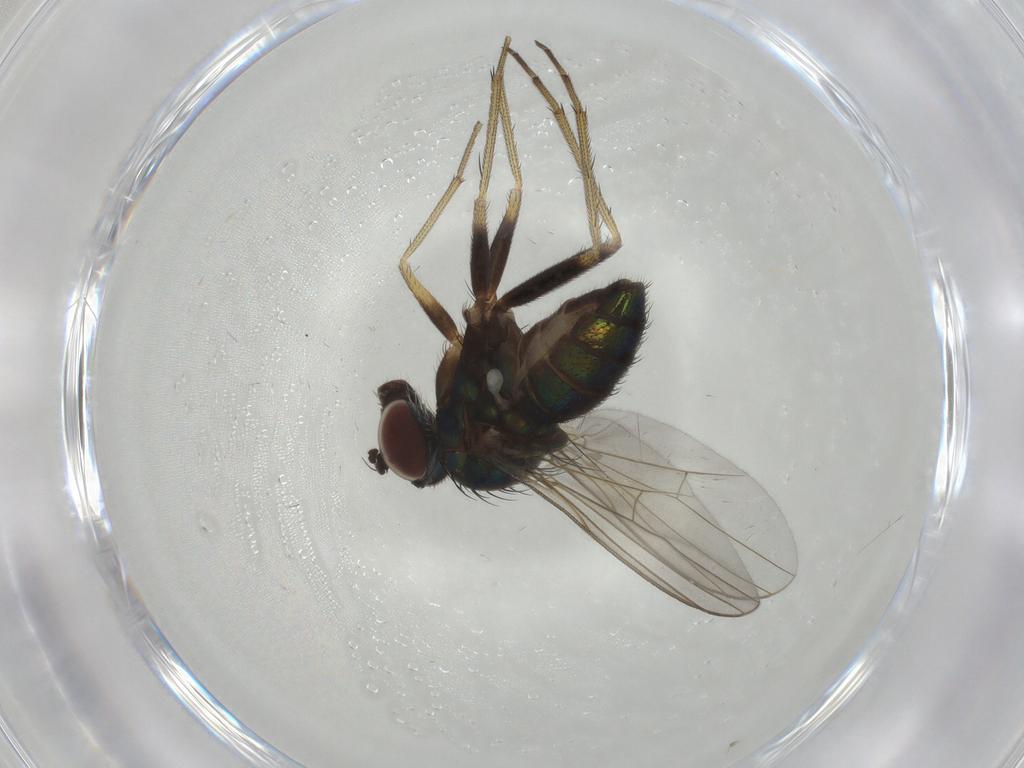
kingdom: Animalia
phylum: Arthropoda
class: Insecta
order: Diptera
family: Dolichopodidae
